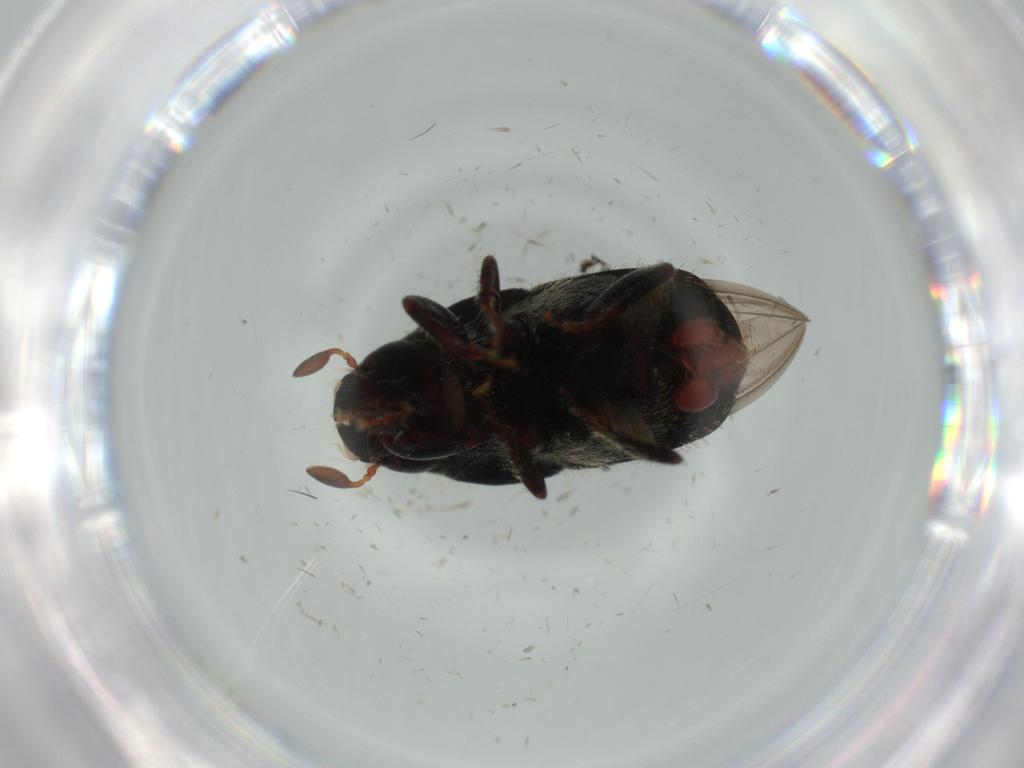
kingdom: Animalia
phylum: Arthropoda
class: Insecta
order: Coleoptera
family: Curculionidae
